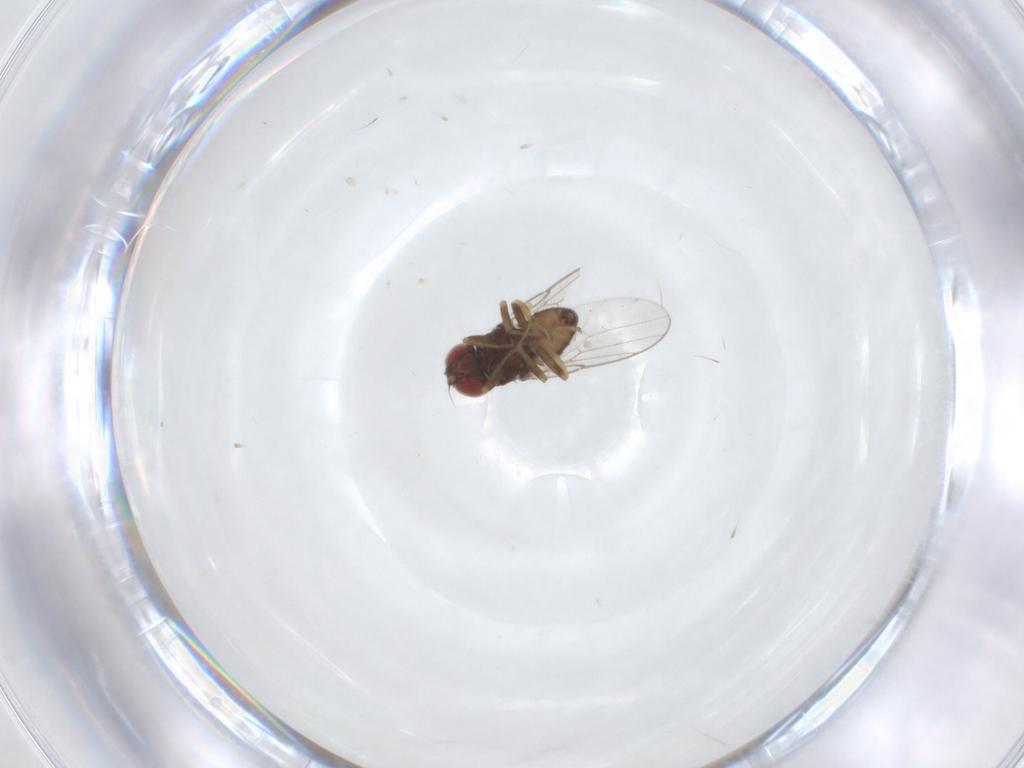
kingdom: Animalia
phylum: Arthropoda
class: Insecta
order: Diptera
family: Chloropidae
